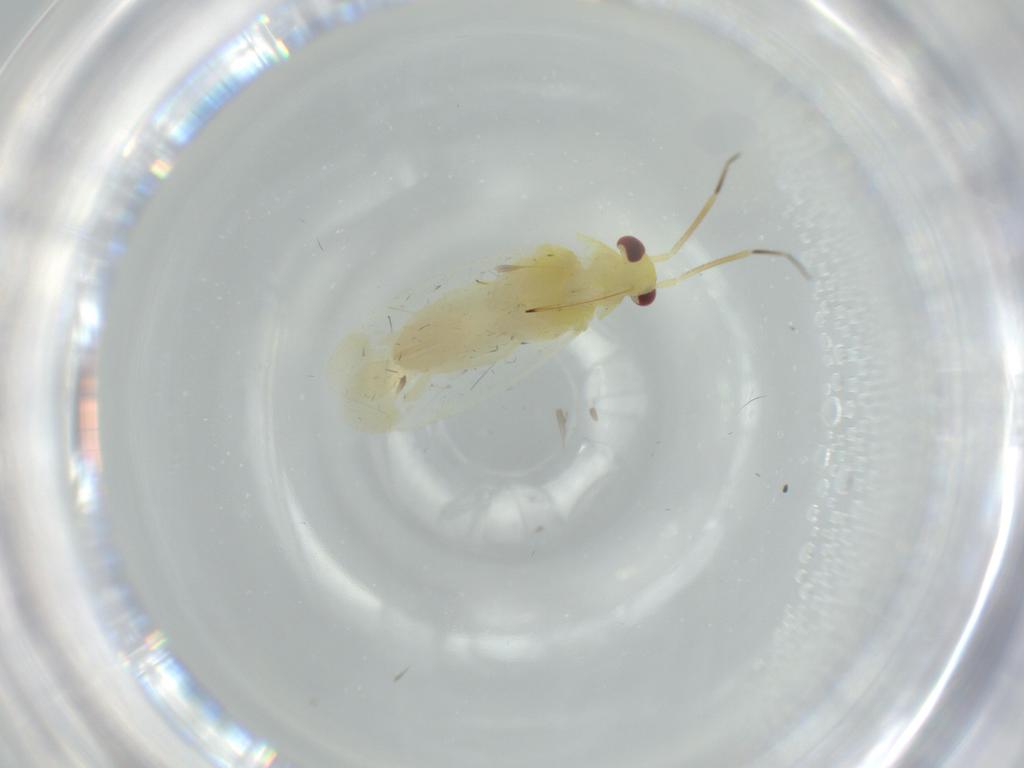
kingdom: Animalia
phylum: Arthropoda
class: Insecta
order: Hemiptera
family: Miridae
